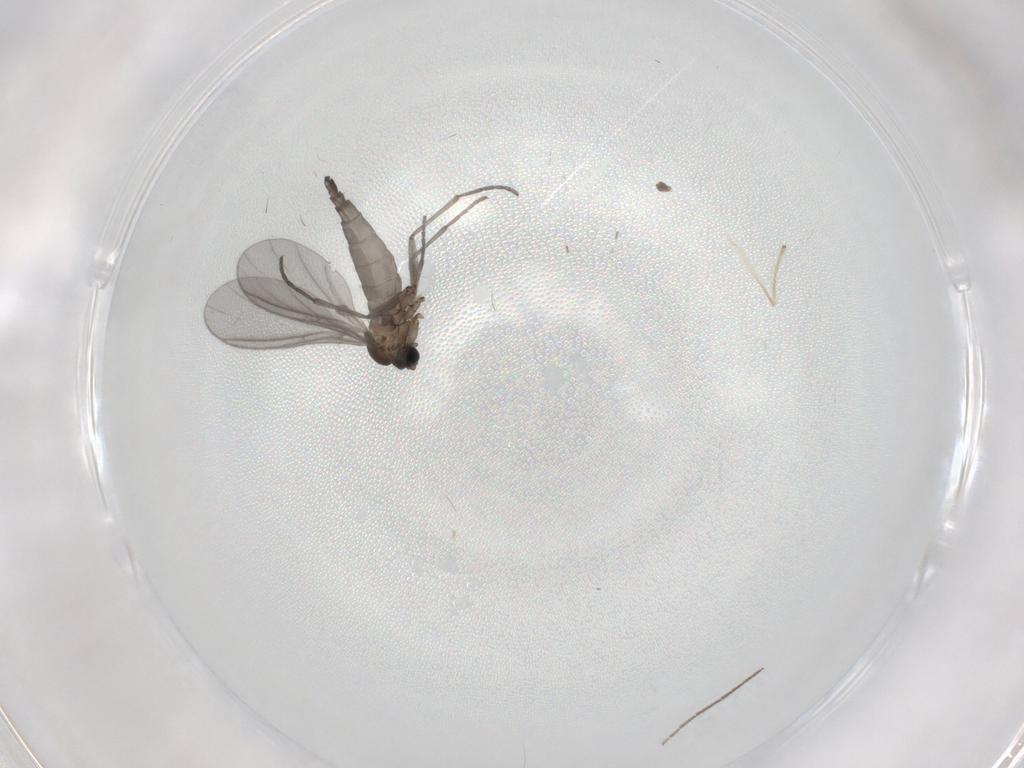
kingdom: Animalia
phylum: Arthropoda
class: Insecta
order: Diptera
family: Sciaridae
